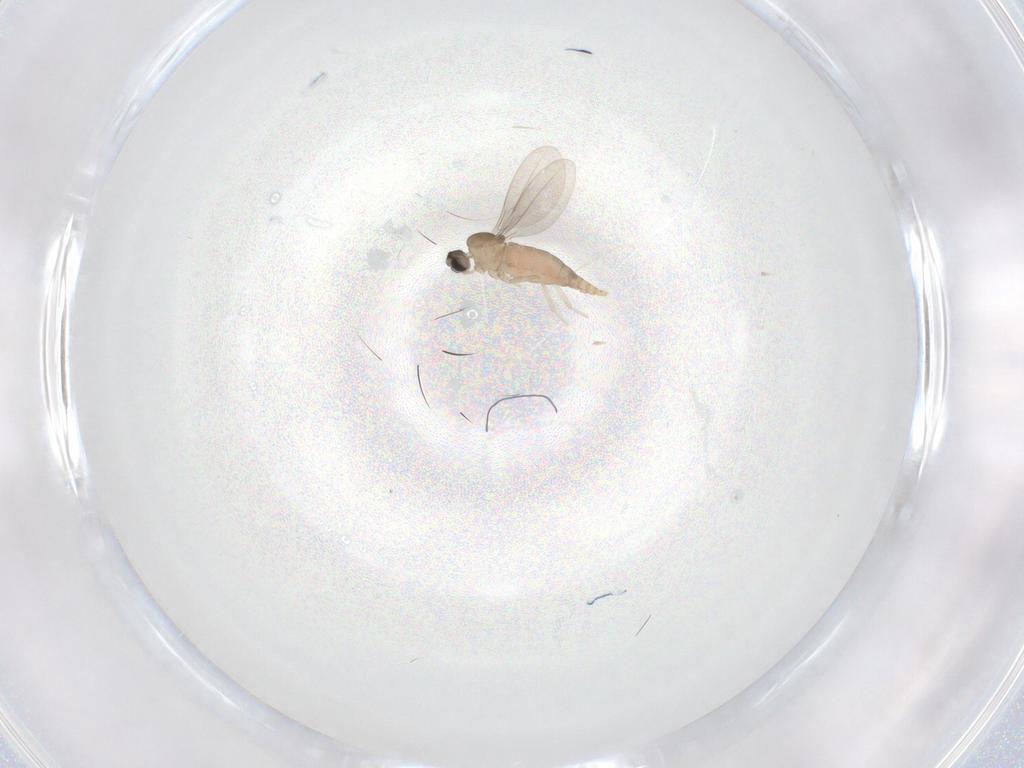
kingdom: Animalia
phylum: Arthropoda
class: Insecta
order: Diptera
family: Cecidomyiidae
